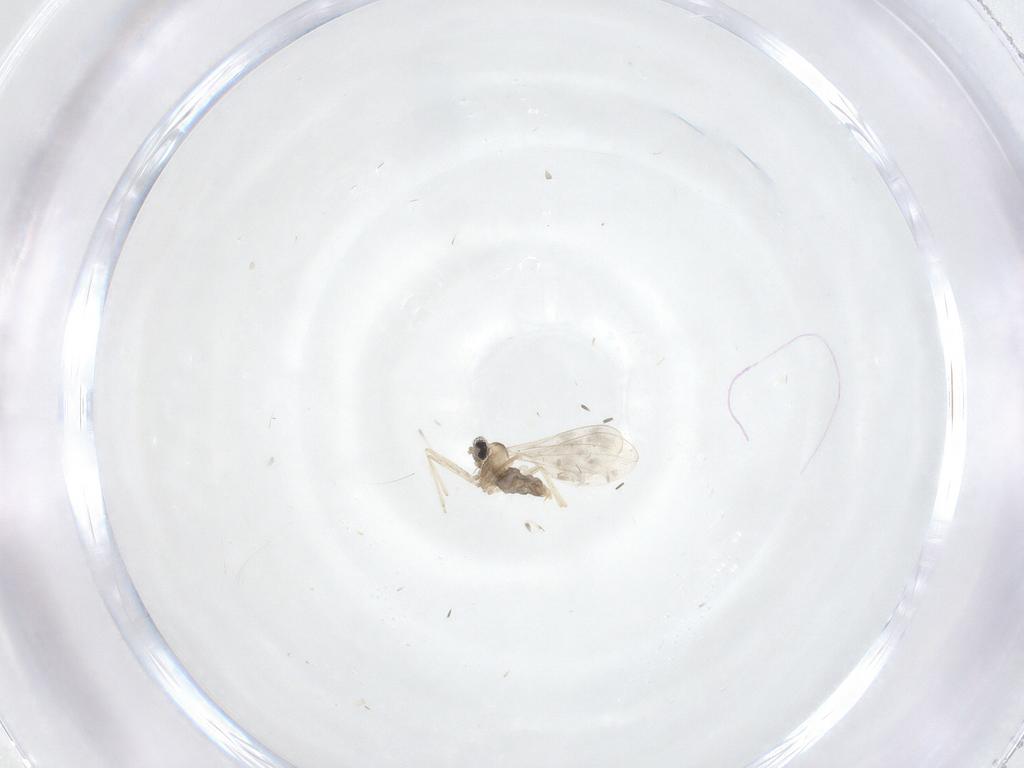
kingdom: Animalia
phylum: Arthropoda
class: Insecta
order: Diptera
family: Cecidomyiidae
